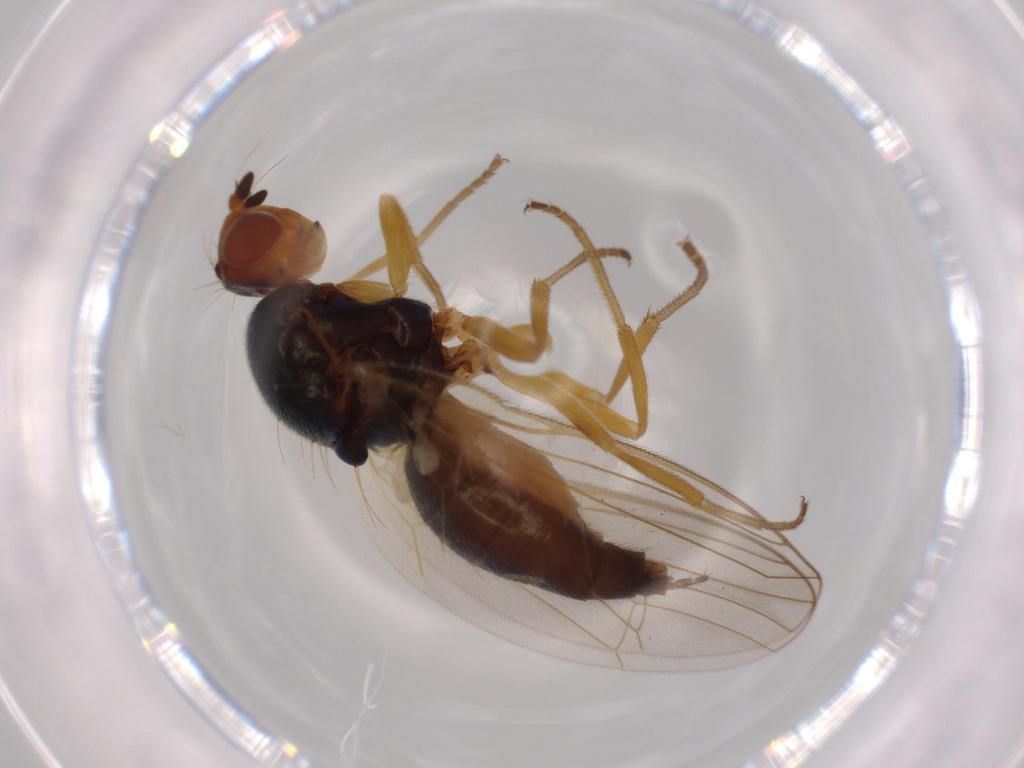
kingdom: Animalia
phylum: Arthropoda
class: Insecta
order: Diptera
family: Psilidae
